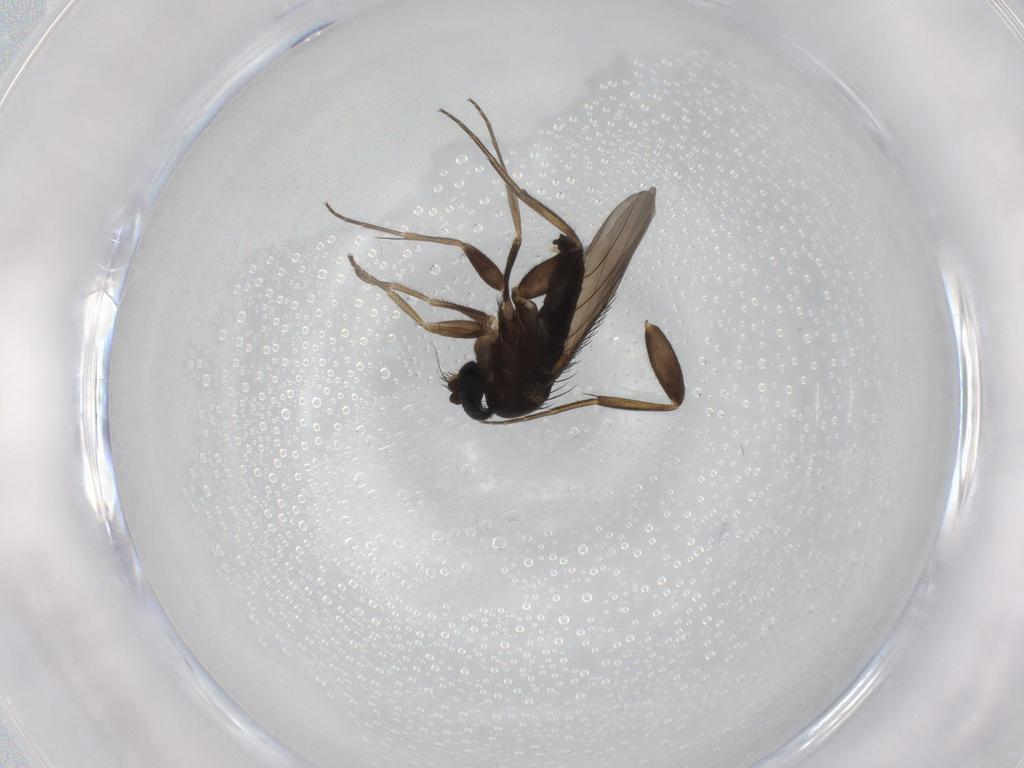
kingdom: Animalia
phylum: Arthropoda
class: Insecta
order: Diptera
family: Phoridae
